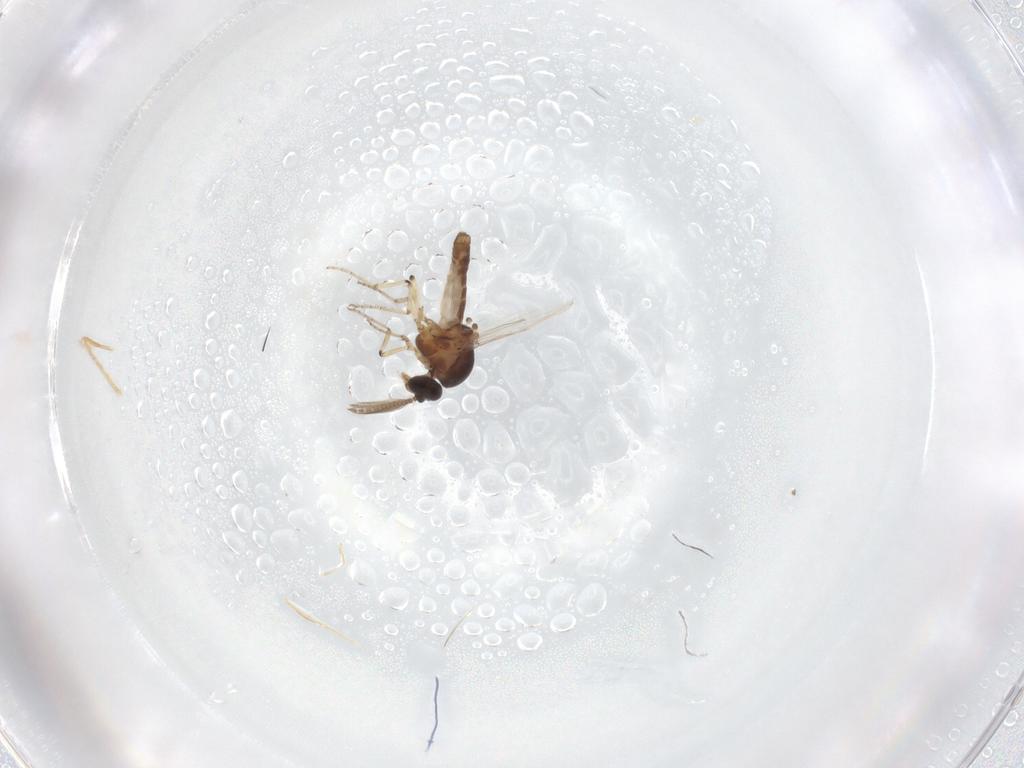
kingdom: Animalia
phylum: Arthropoda
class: Insecta
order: Diptera
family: Ceratopogonidae
